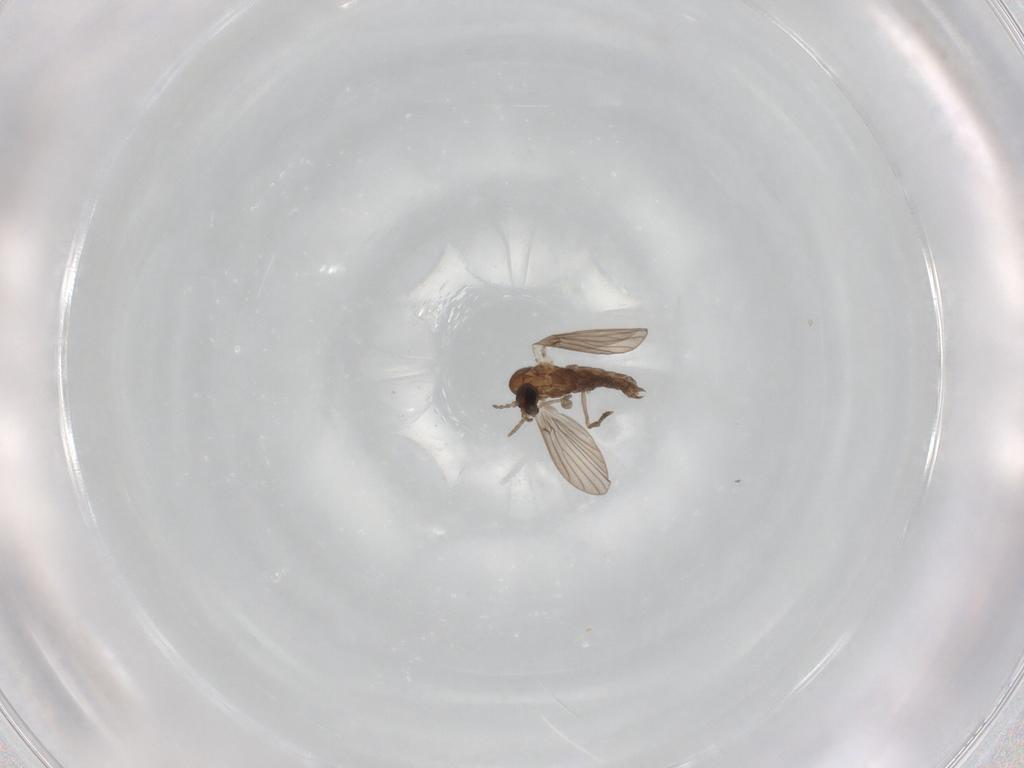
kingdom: Animalia
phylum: Arthropoda
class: Insecta
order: Diptera
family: Cecidomyiidae
